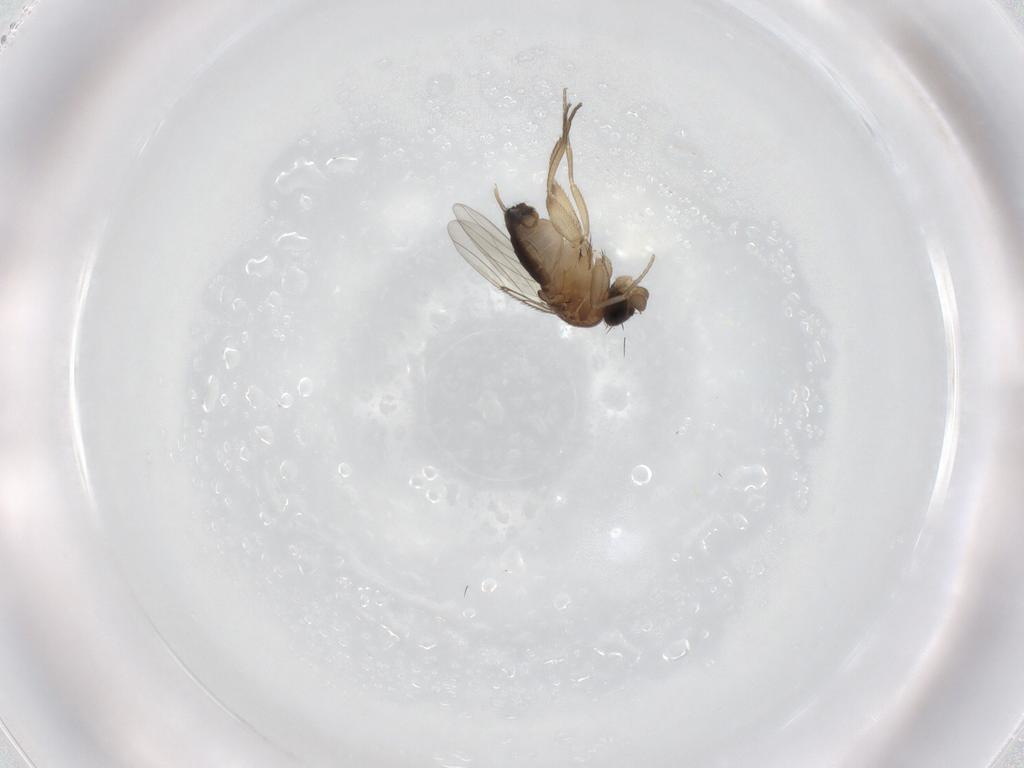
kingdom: Animalia
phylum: Arthropoda
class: Insecta
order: Diptera
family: Phoridae
